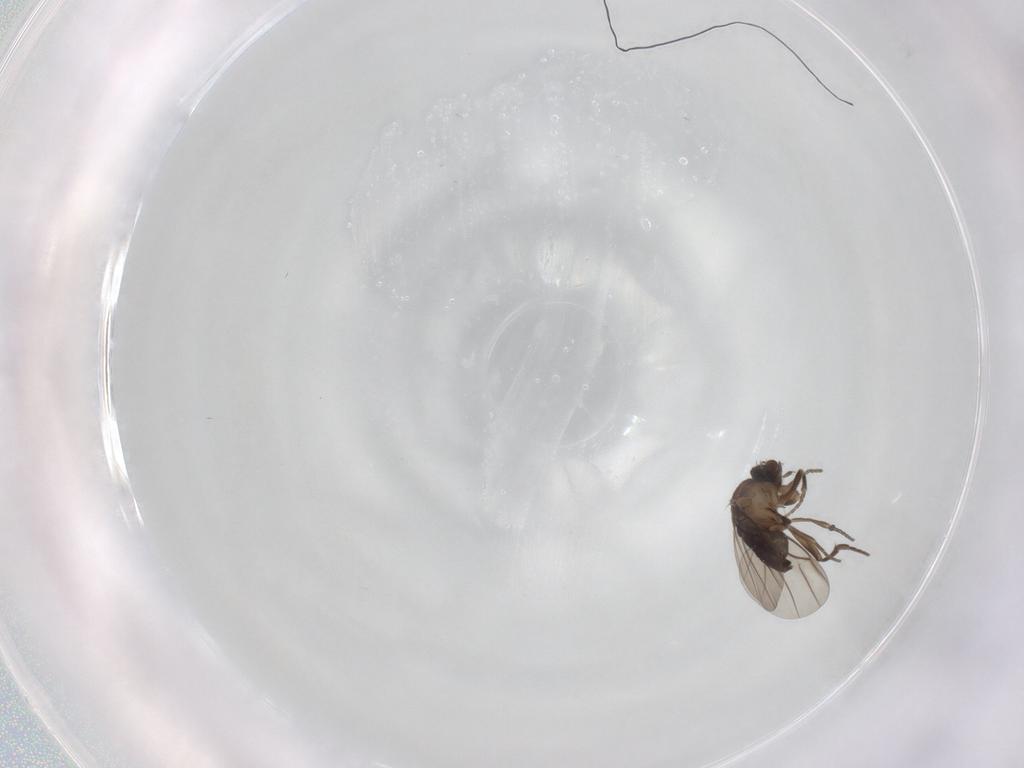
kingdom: Animalia
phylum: Arthropoda
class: Insecta
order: Diptera
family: Phoridae
